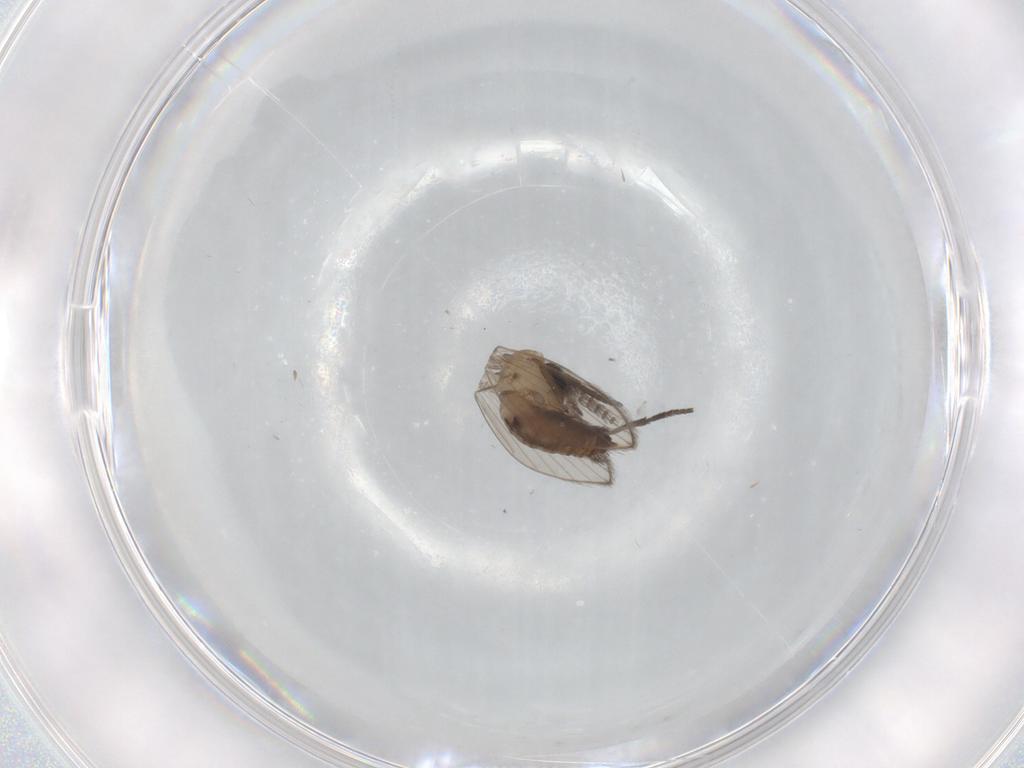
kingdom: Animalia
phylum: Arthropoda
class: Insecta
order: Diptera
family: Psychodidae
